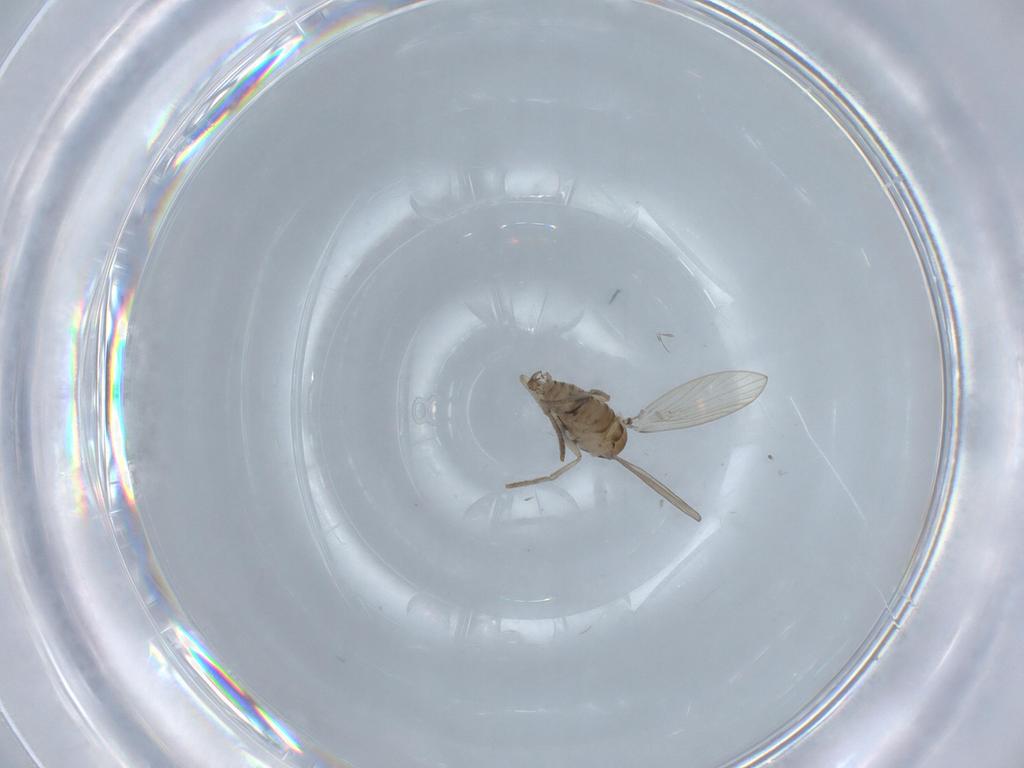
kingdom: Animalia
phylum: Arthropoda
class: Insecta
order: Diptera
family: Psychodidae
